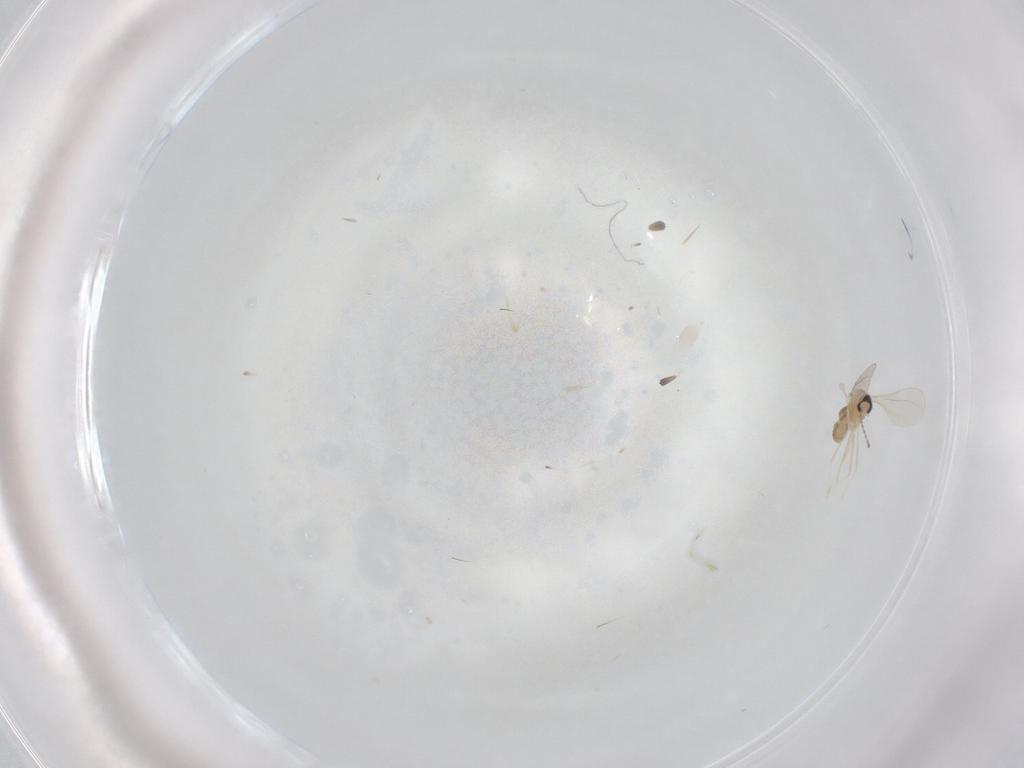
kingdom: Animalia
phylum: Arthropoda
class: Insecta
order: Diptera
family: Cecidomyiidae
